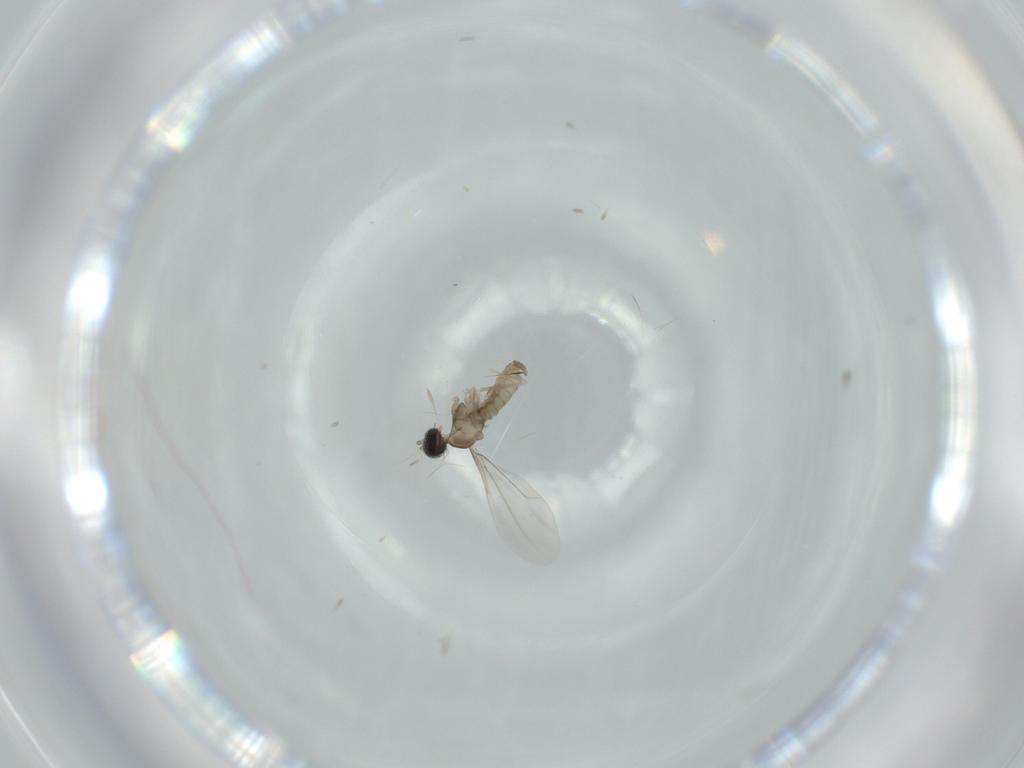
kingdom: Animalia
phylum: Arthropoda
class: Insecta
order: Diptera
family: Cecidomyiidae
